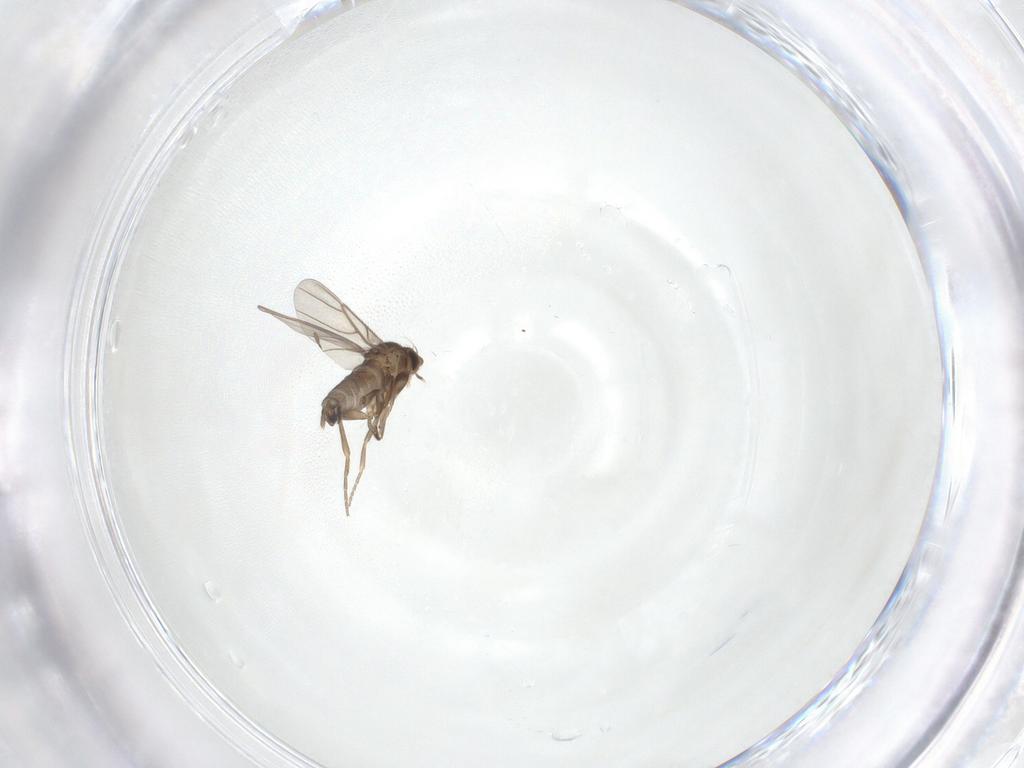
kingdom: Animalia
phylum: Arthropoda
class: Insecta
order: Diptera
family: Phoridae
